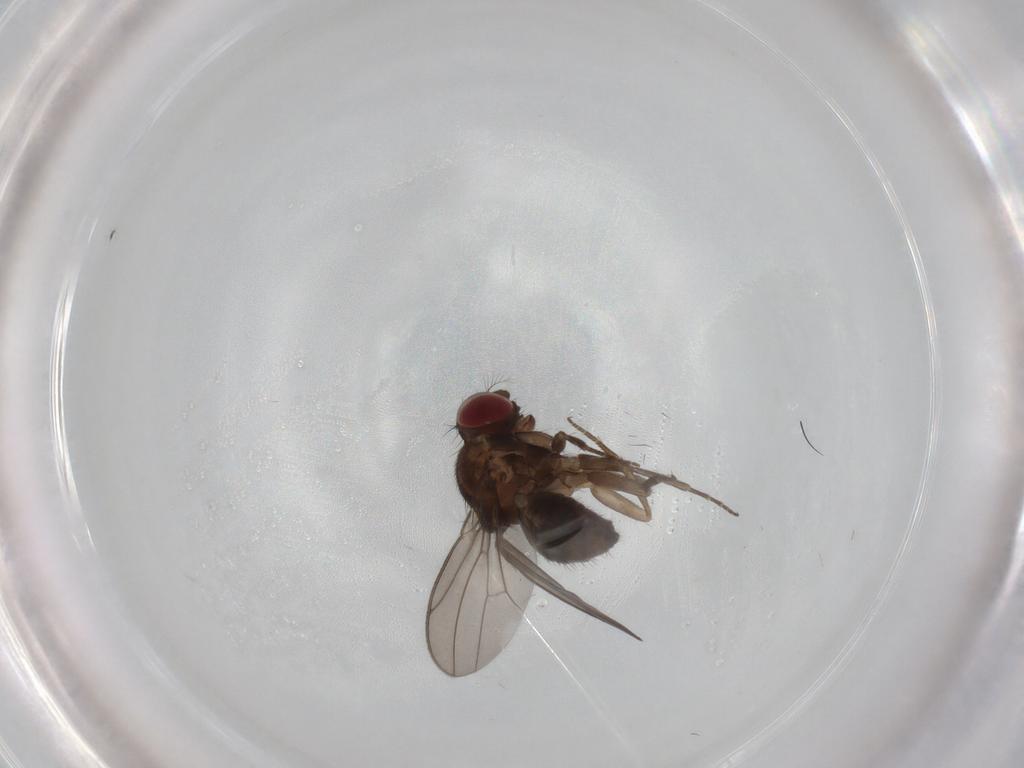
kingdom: Animalia
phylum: Arthropoda
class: Insecta
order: Diptera
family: Drosophilidae
